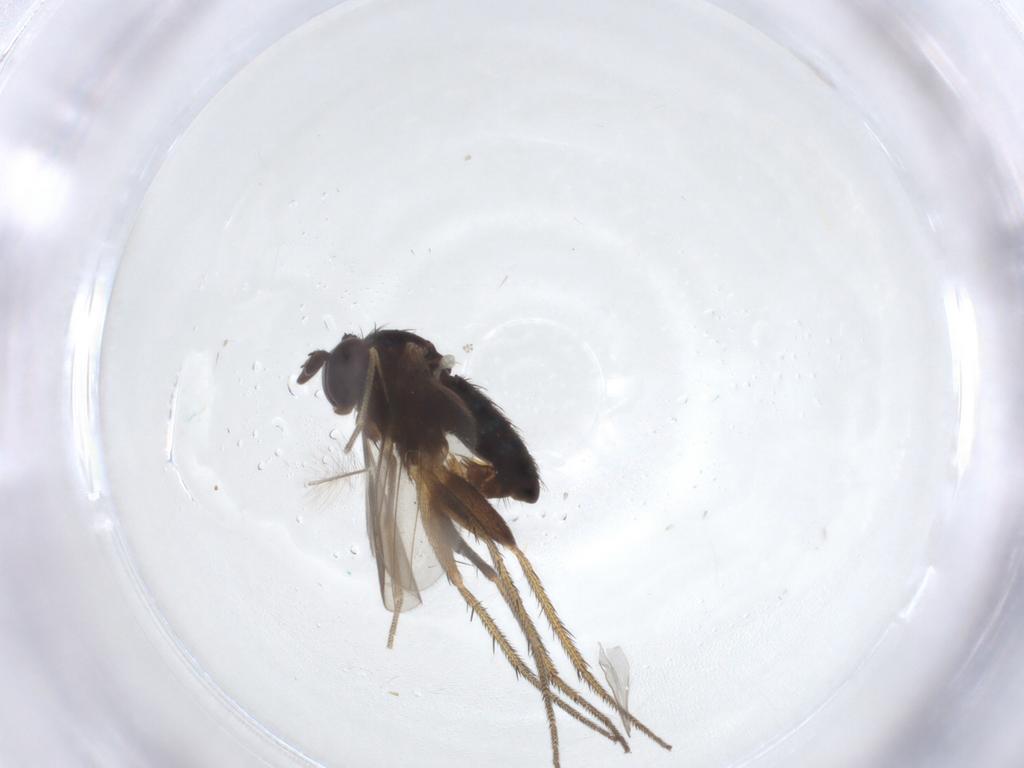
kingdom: Animalia
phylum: Arthropoda
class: Insecta
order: Diptera
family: Dolichopodidae
